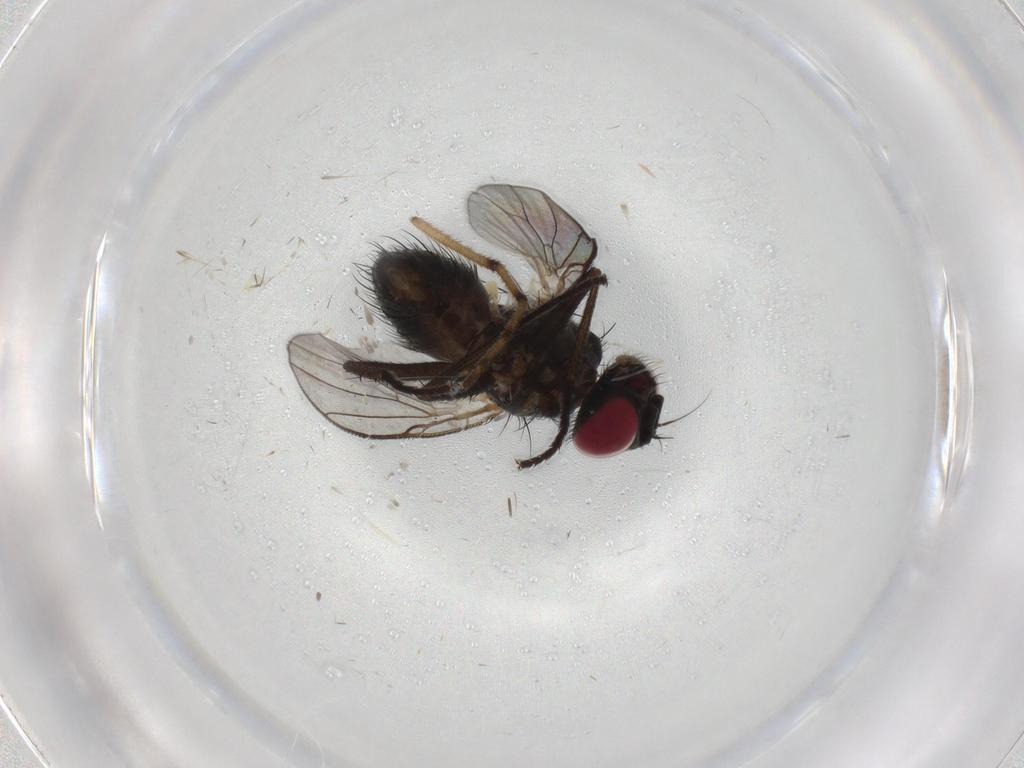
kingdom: Animalia
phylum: Arthropoda
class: Insecta
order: Diptera
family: Muscidae
